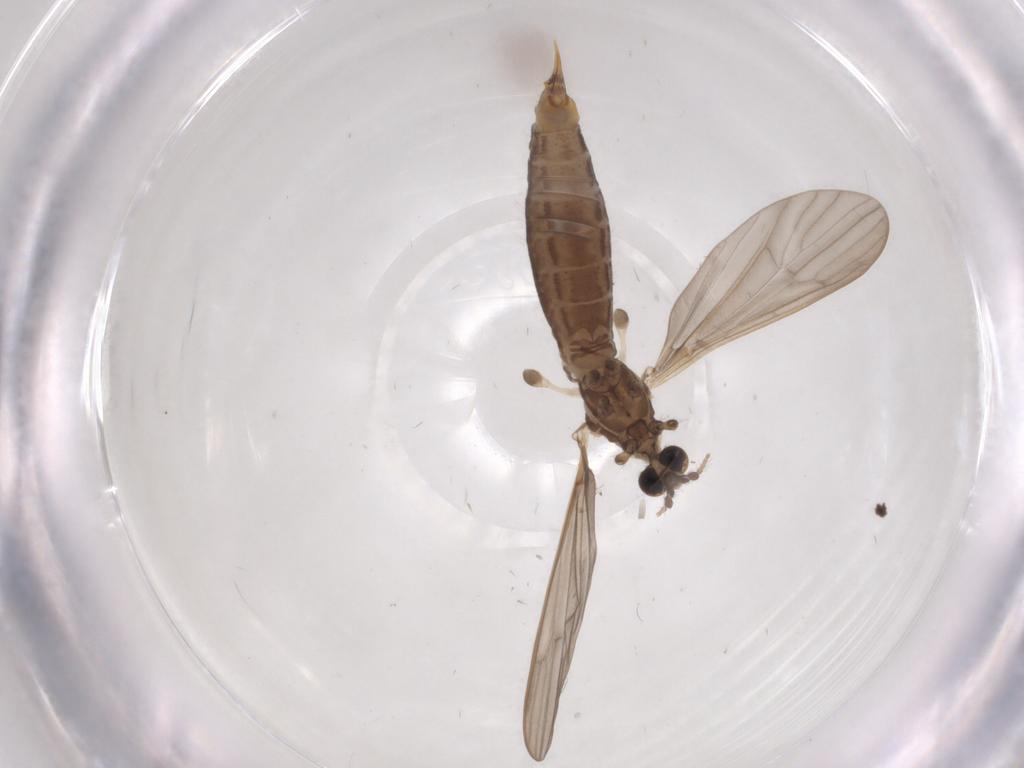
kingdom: Animalia
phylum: Arthropoda
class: Insecta
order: Diptera
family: Limoniidae
